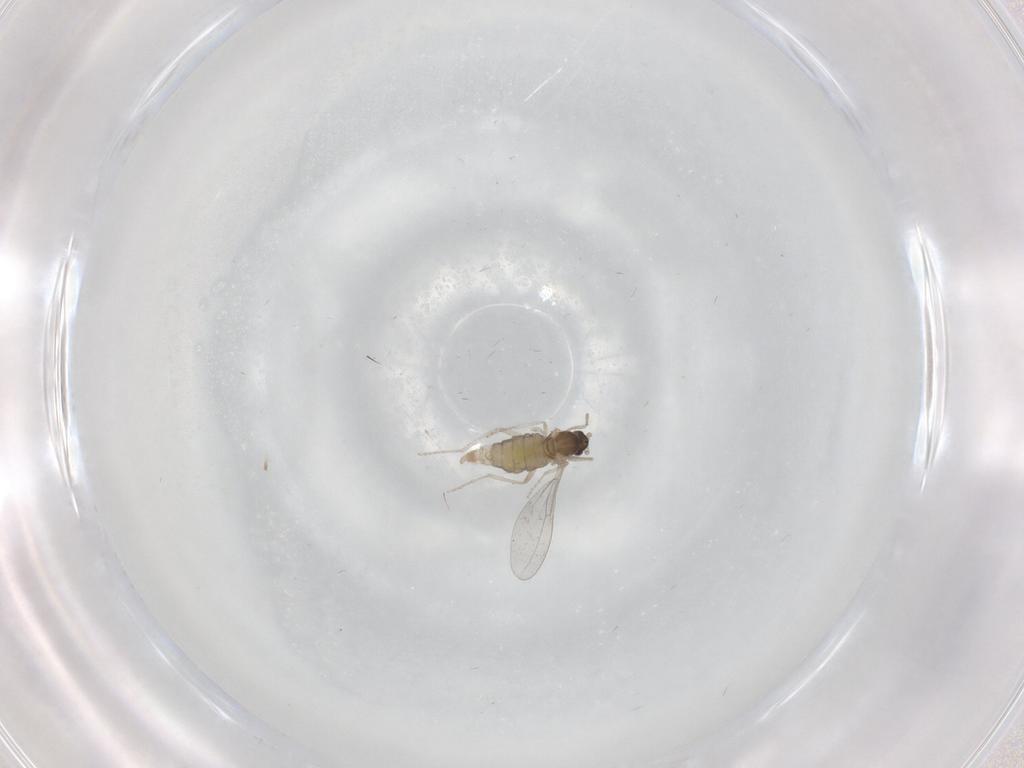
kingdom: Animalia
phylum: Arthropoda
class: Insecta
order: Diptera
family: Cecidomyiidae
